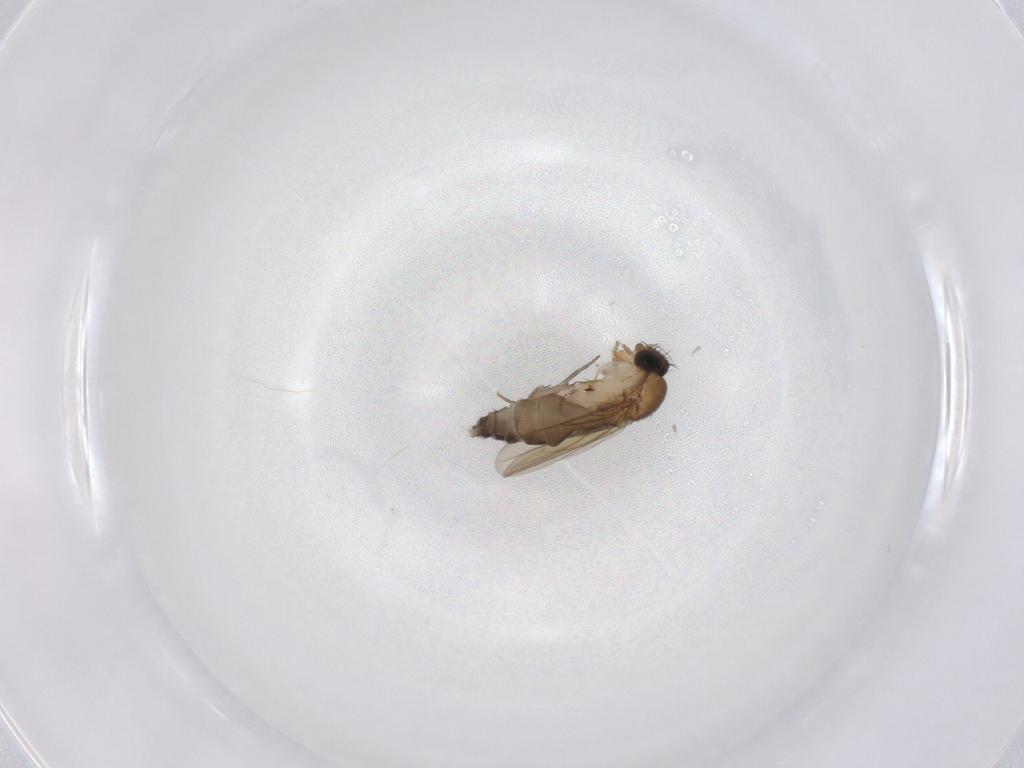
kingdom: Animalia
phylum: Arthropoda
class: Insecta
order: Diptera
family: Phoridae
